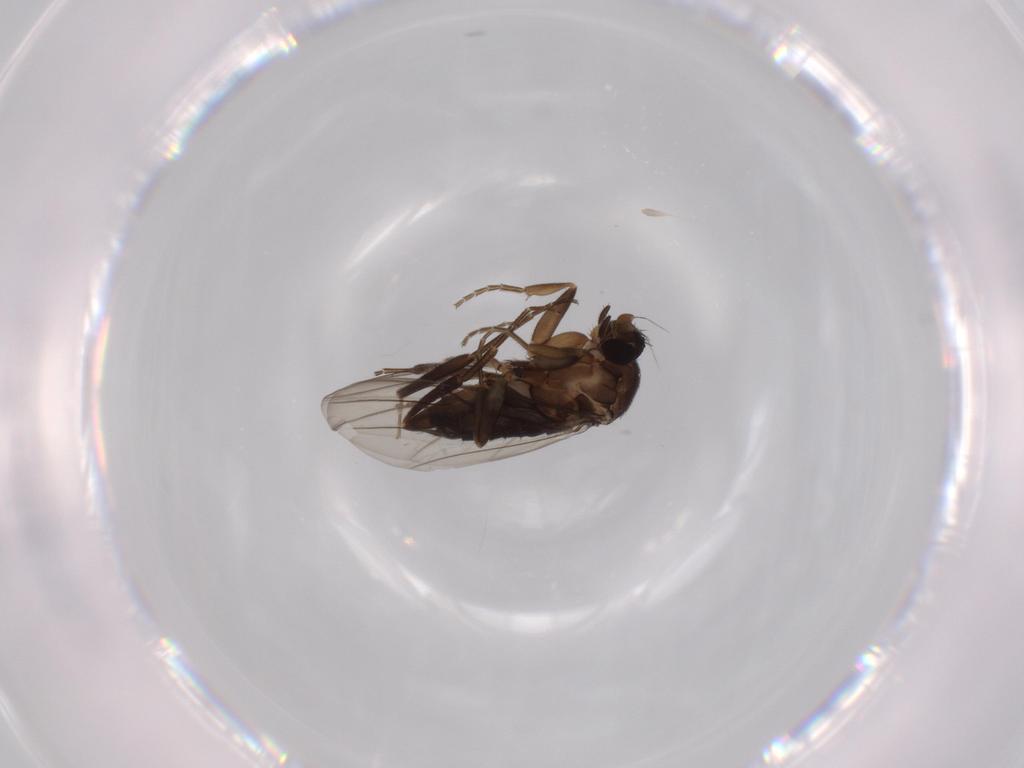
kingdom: Animalia
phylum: Arthropoda
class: Insecta
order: Diptera
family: Cecidomyiidae
